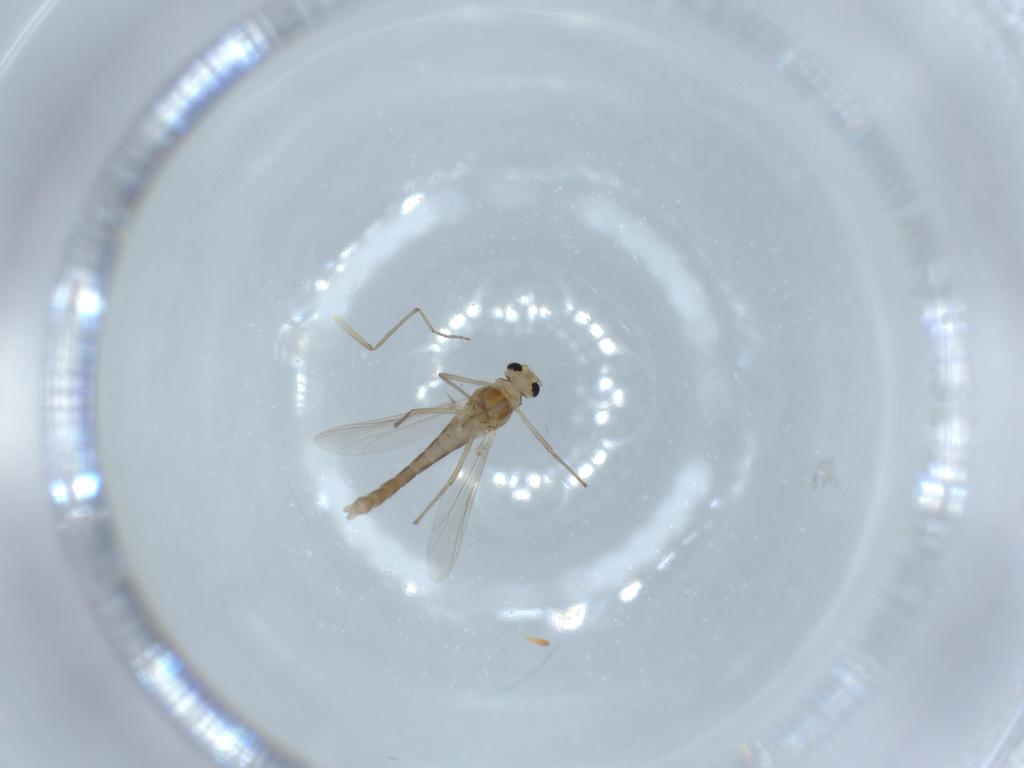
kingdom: Animalia
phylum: Arthropoda
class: Insecta
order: Diptera
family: Chironomidae
